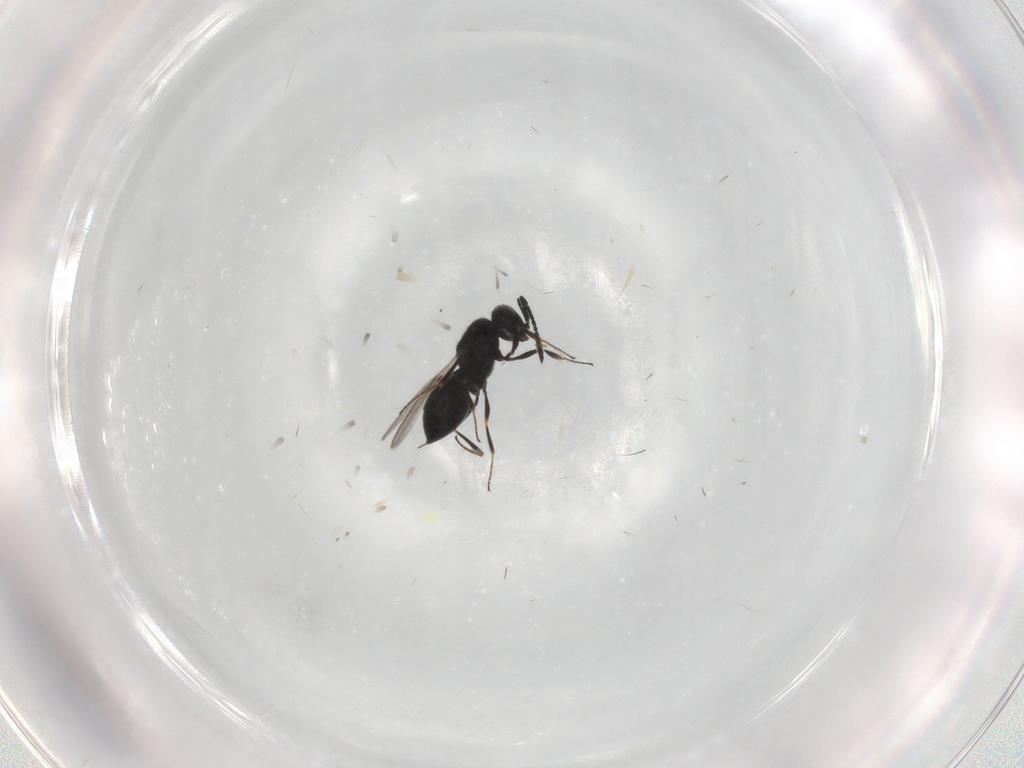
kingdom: Animalia
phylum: Arthropoda
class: Insecta
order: Hymenoptera
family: Scelionidae
